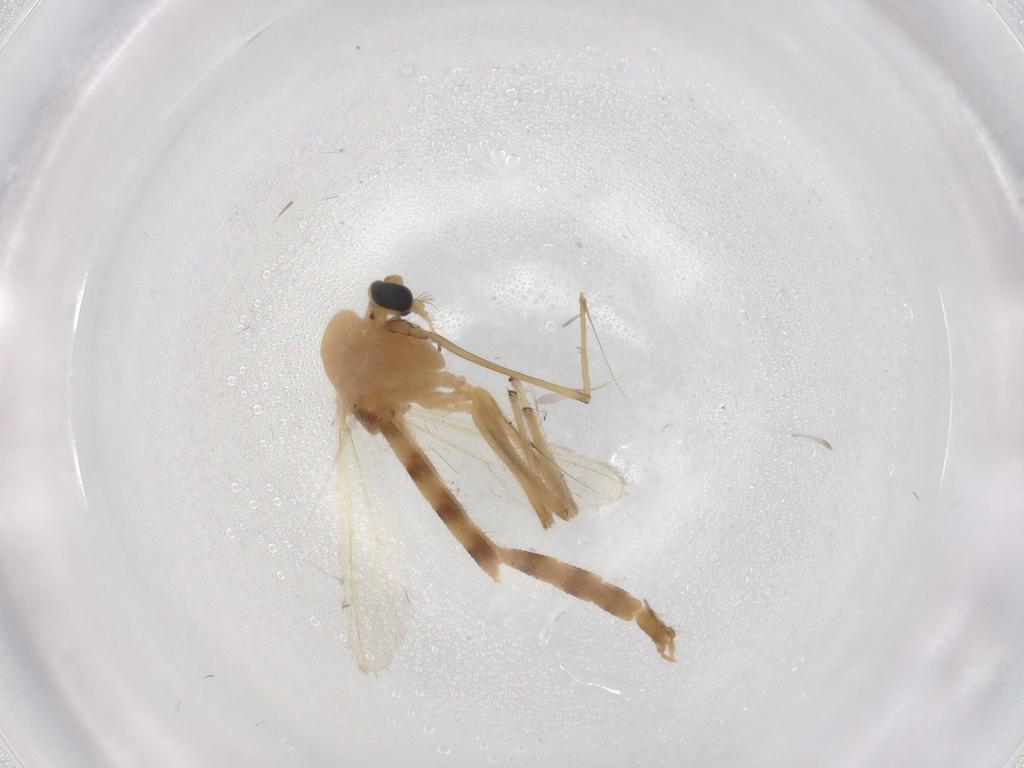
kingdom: Animalia
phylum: Arthropoda
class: Insecta
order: Diptera
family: Chironomidae
